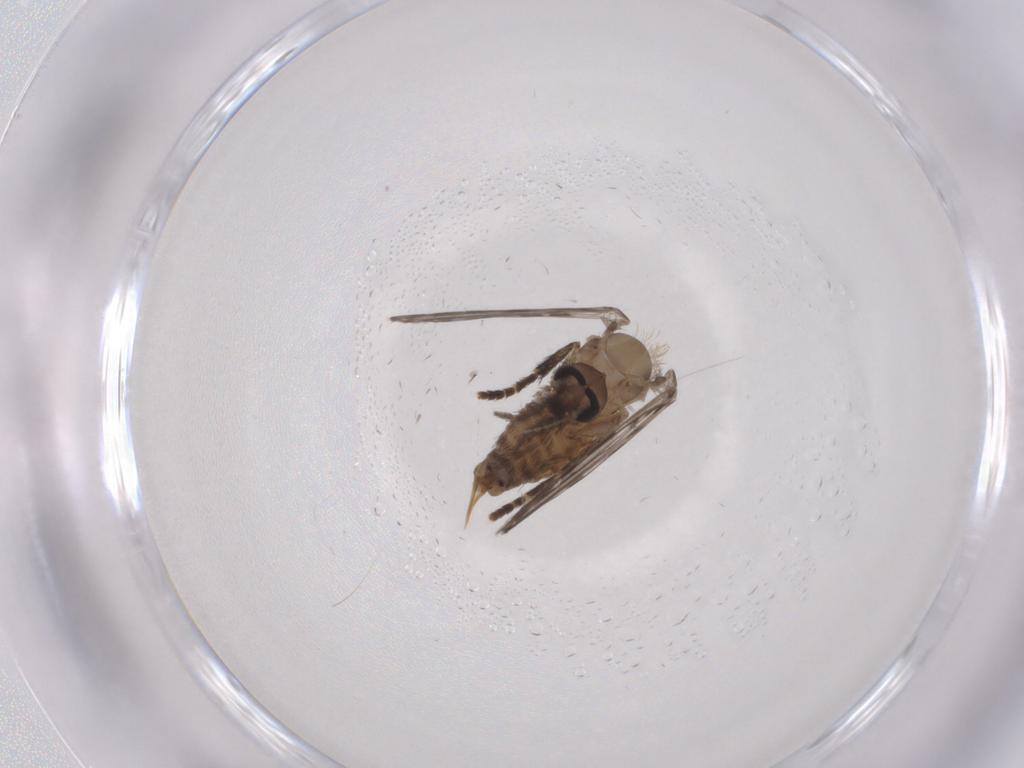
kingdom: Animalia
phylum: Arthropoda
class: Insecta
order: Diptera
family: Psychodidae
